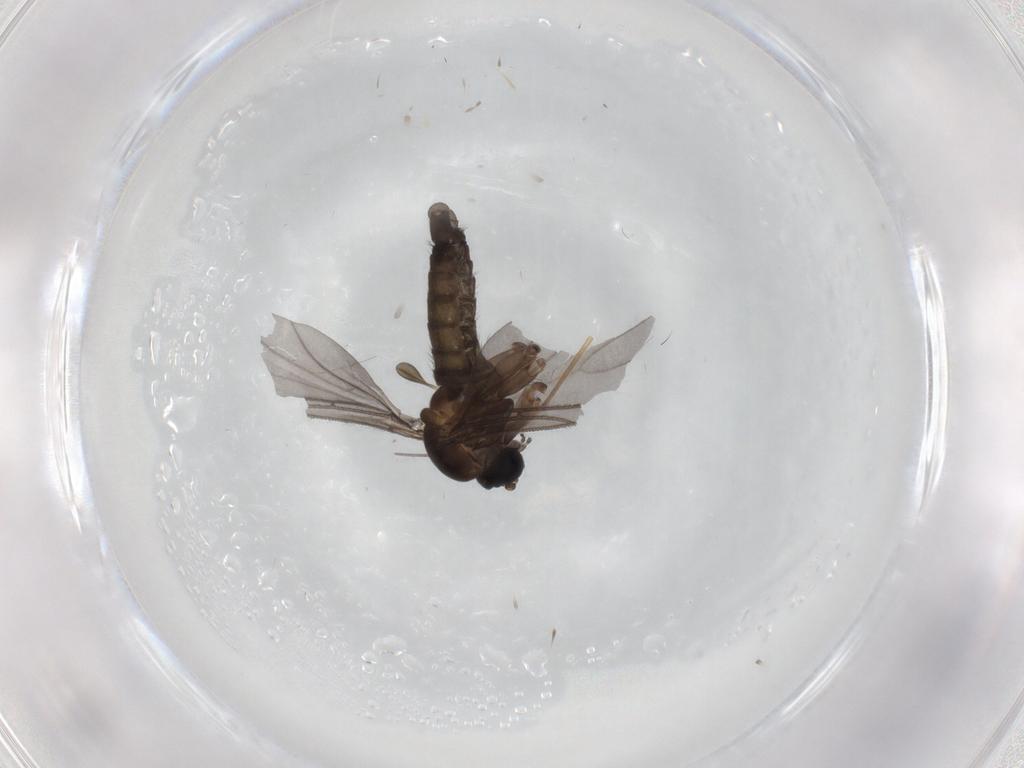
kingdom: Animalia
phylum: Arthropoda
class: Insecta
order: Diptera
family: Sciaridae
